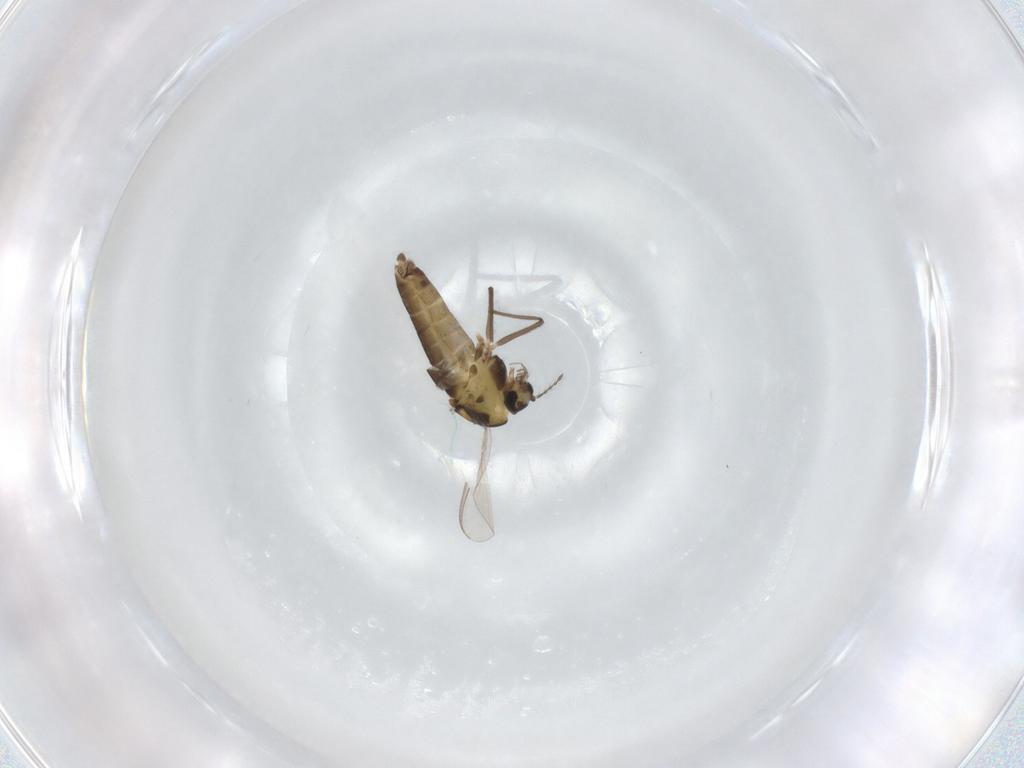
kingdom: Animalia
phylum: Arthropoda
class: Insecta
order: Diptera
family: Chironomidae
